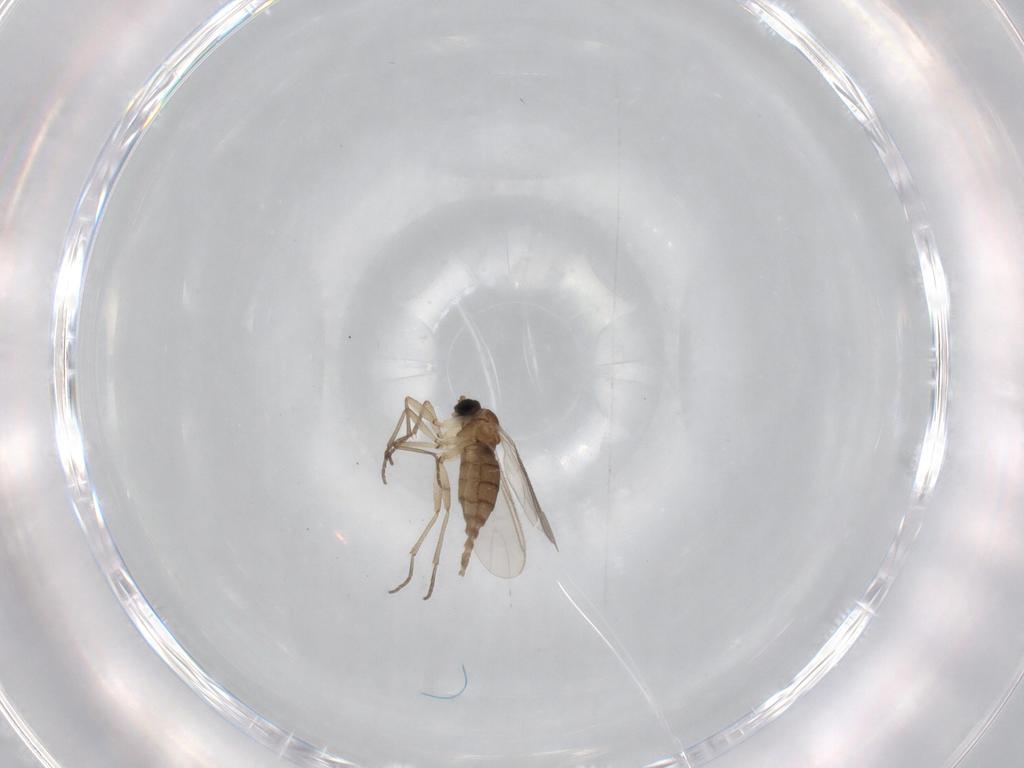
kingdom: Animalia
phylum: Arthropoda
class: Insecta
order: Diptera
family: Sciaridae
